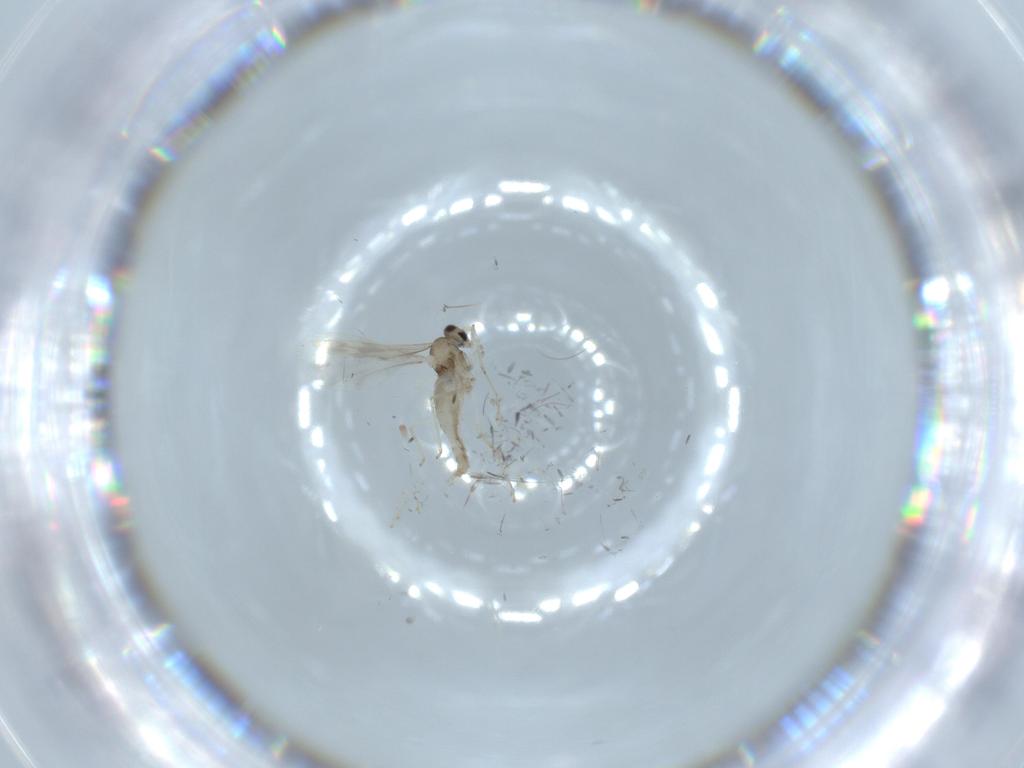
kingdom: Animalia
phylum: Arthropoda
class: Insecta
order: Diptera
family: Cecidomyiidae
